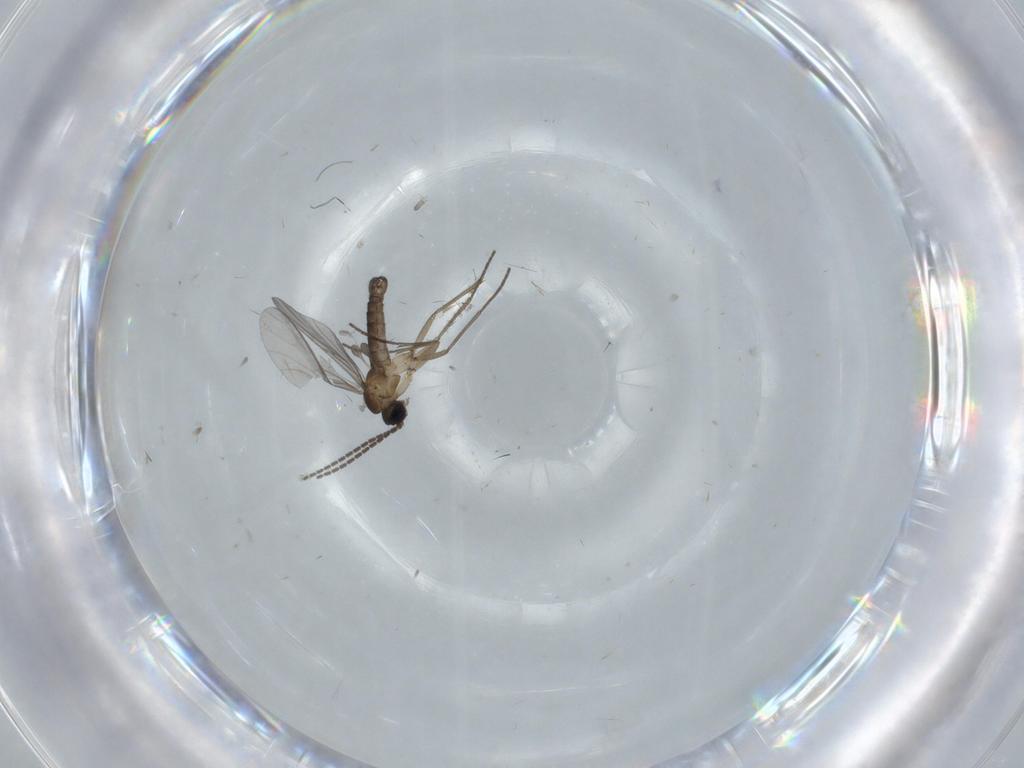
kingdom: Animalia
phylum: Arthropoda
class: Insecta
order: Diptera
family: Sciaridae
